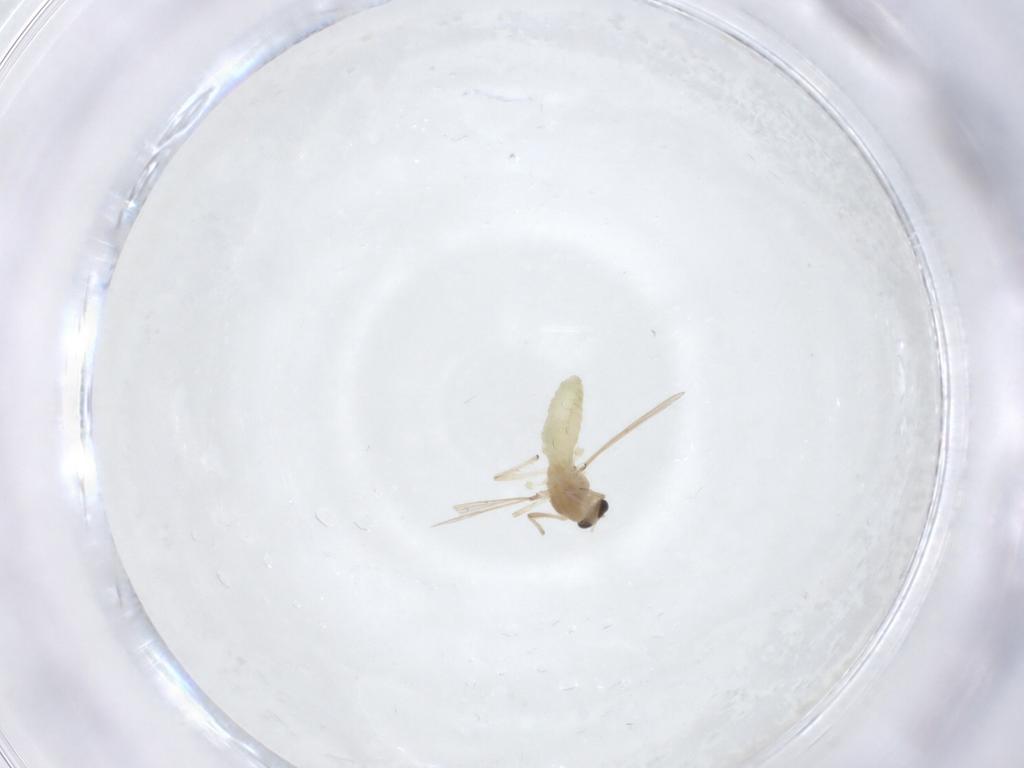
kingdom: Animalia
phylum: Arthropoda
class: Insecta
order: Diptera
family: Chironomidae
